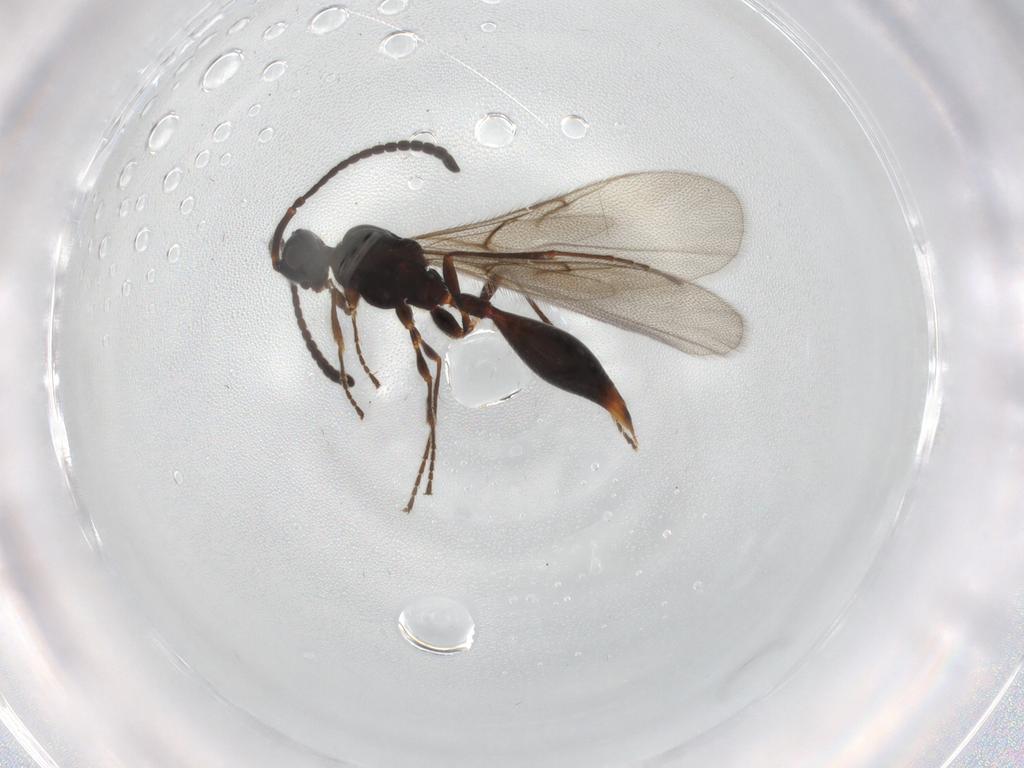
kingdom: Animalia
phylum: Arthropoda
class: Insecta
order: Hymenoptera
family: Diapriidae
